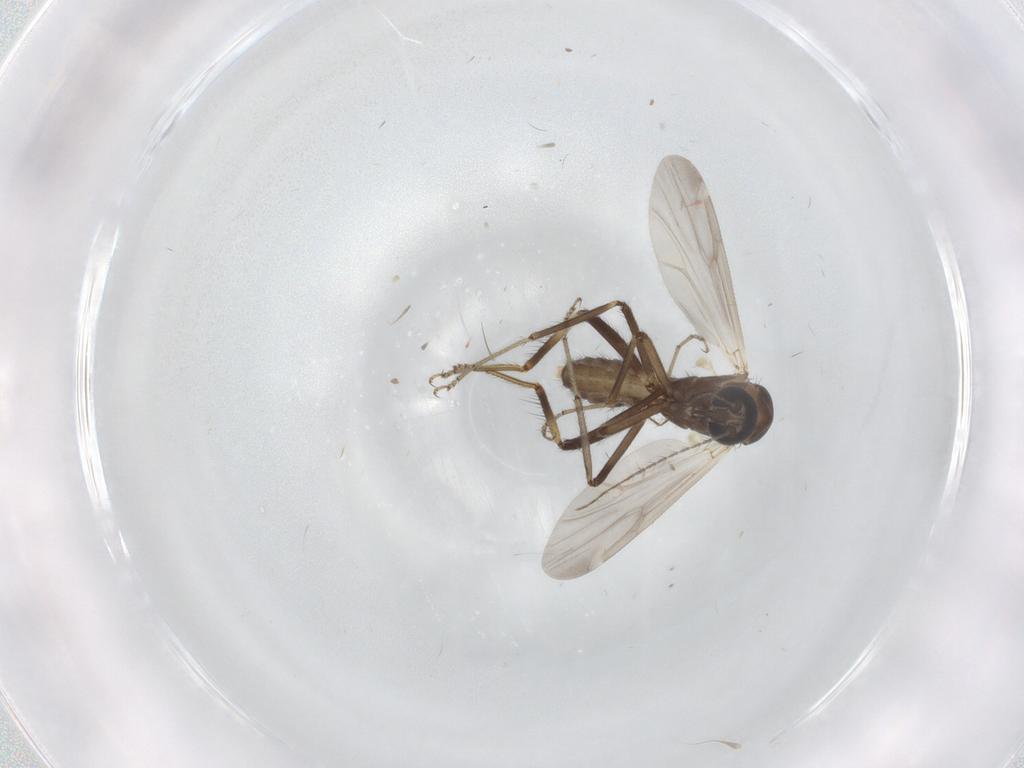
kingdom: Animalia
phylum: Arthropoda
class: Insecta
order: Diptera
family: Ceratopogonidae
